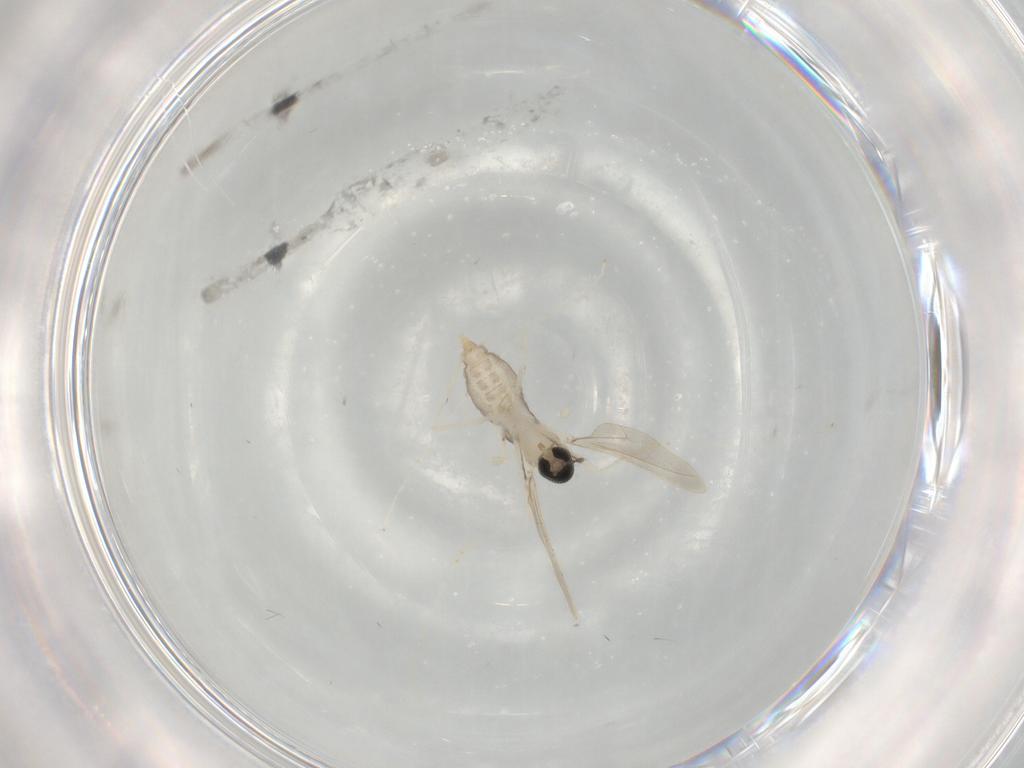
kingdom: Animalia
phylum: Arthropoda
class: Insecta
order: Diptera
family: Cecidomyiidae
